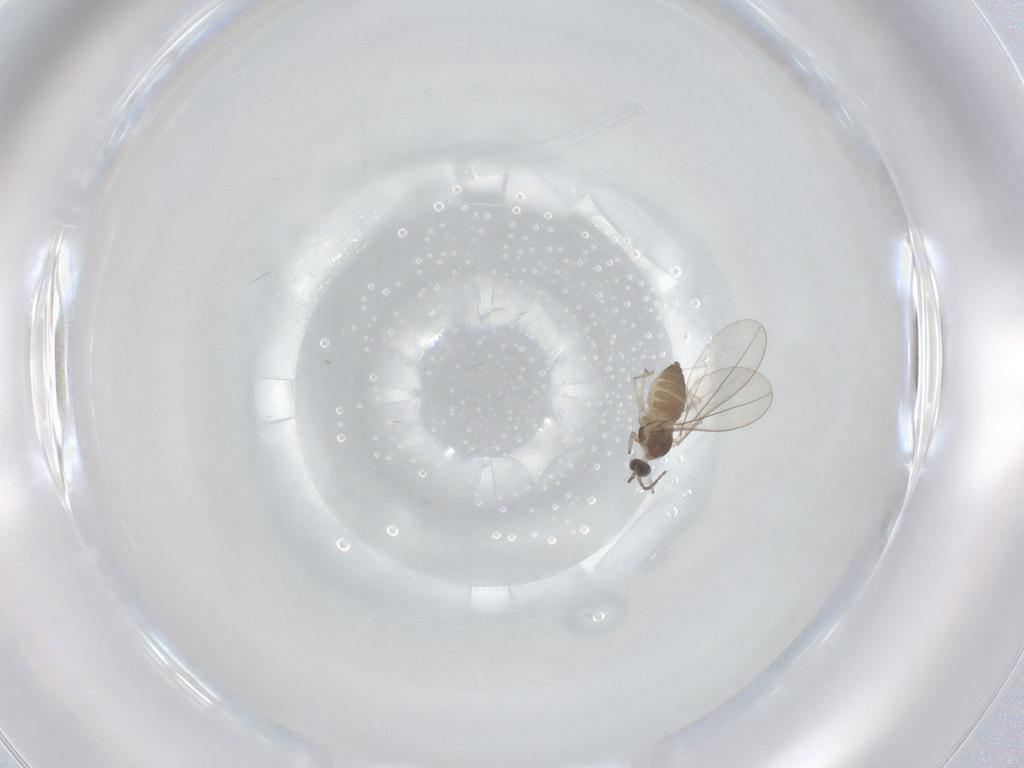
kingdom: Animalia
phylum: Arthropoda
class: Insecta
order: Diptera
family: Cecidomyiidae
